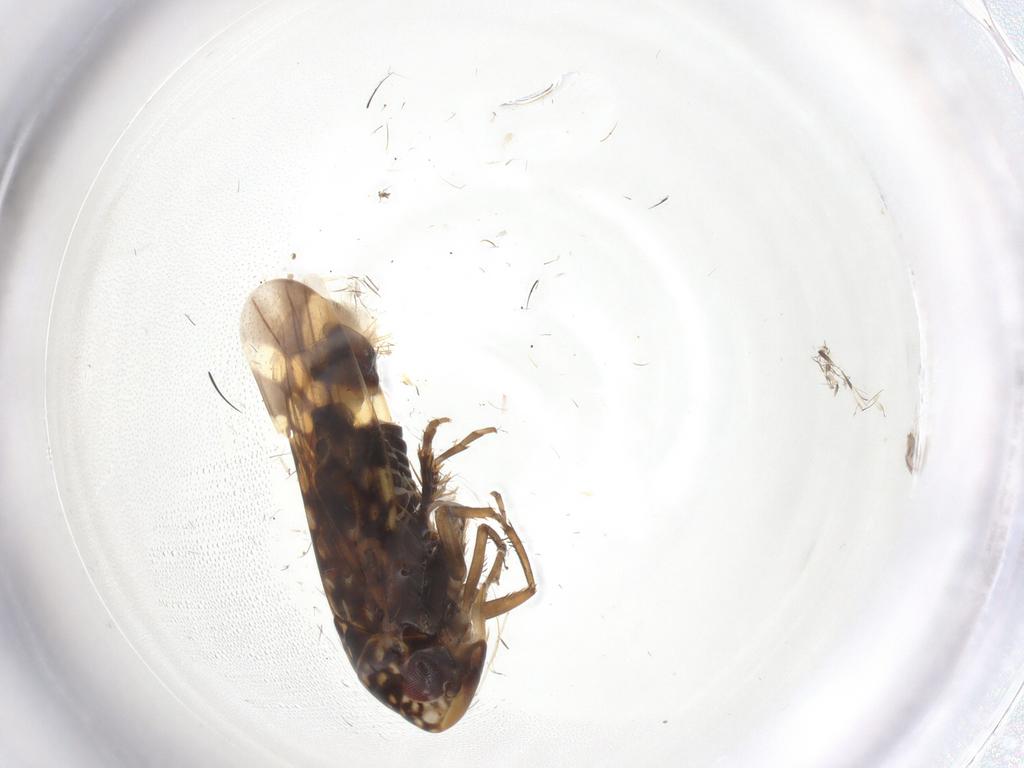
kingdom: Animalia
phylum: Arthropoda
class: Insecta
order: Hemiptera
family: Cicadellidae
